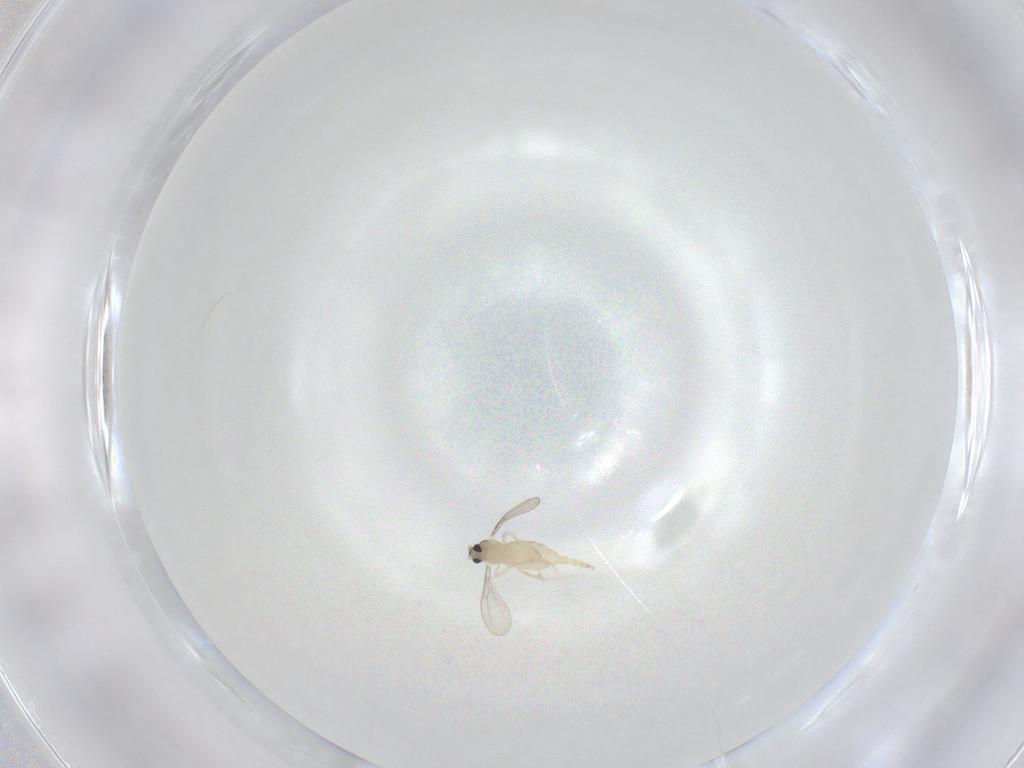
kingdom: Animalia
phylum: Arthropoda
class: Insecta
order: Diptera
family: Cecidomyiidae
